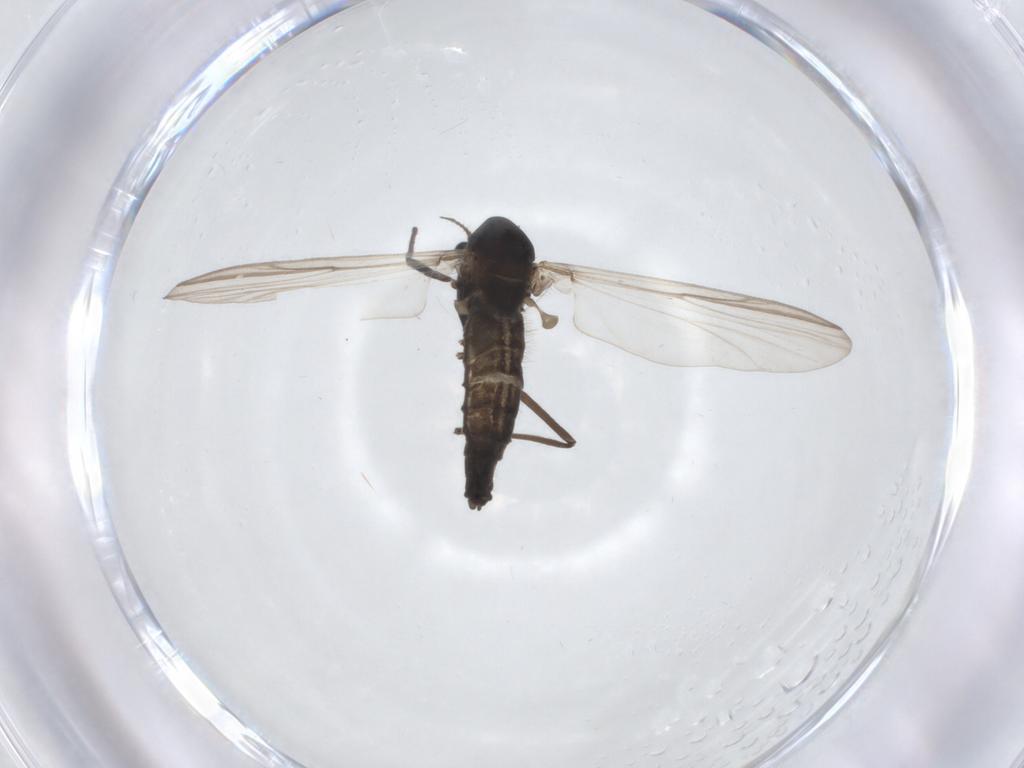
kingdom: Animalia
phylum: Arthropoda
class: Insecta
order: Diptera
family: Chironomidae
